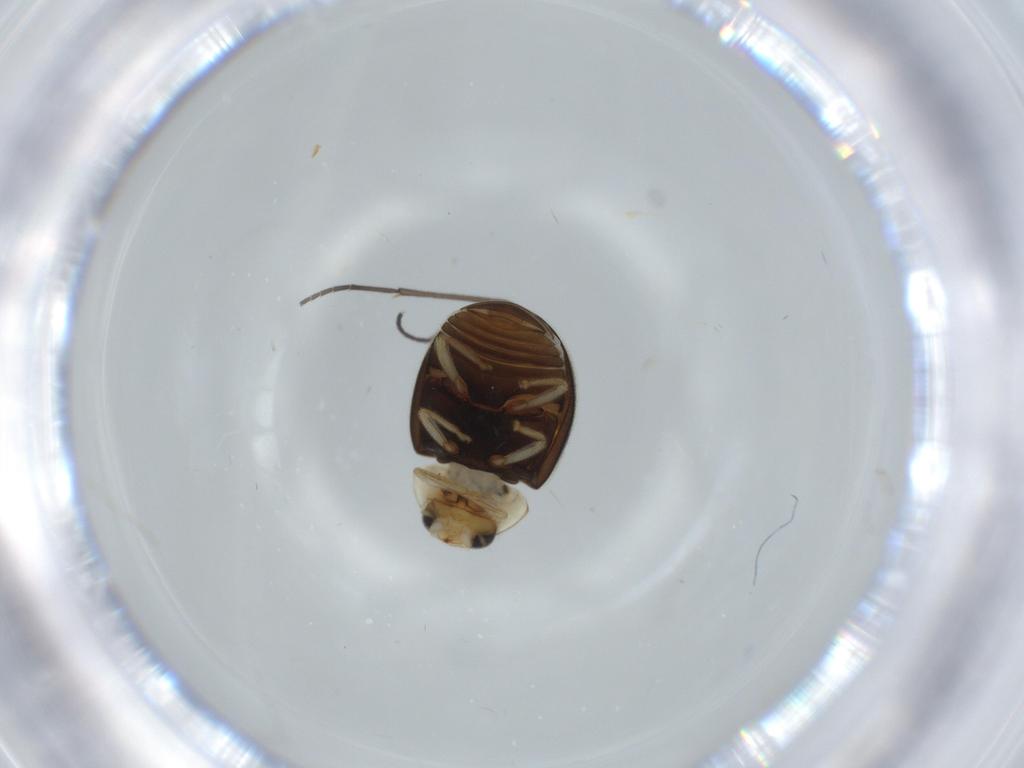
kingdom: Animalia
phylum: Arthropoda
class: Insecta
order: Coleoptera
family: Coccinellidae
